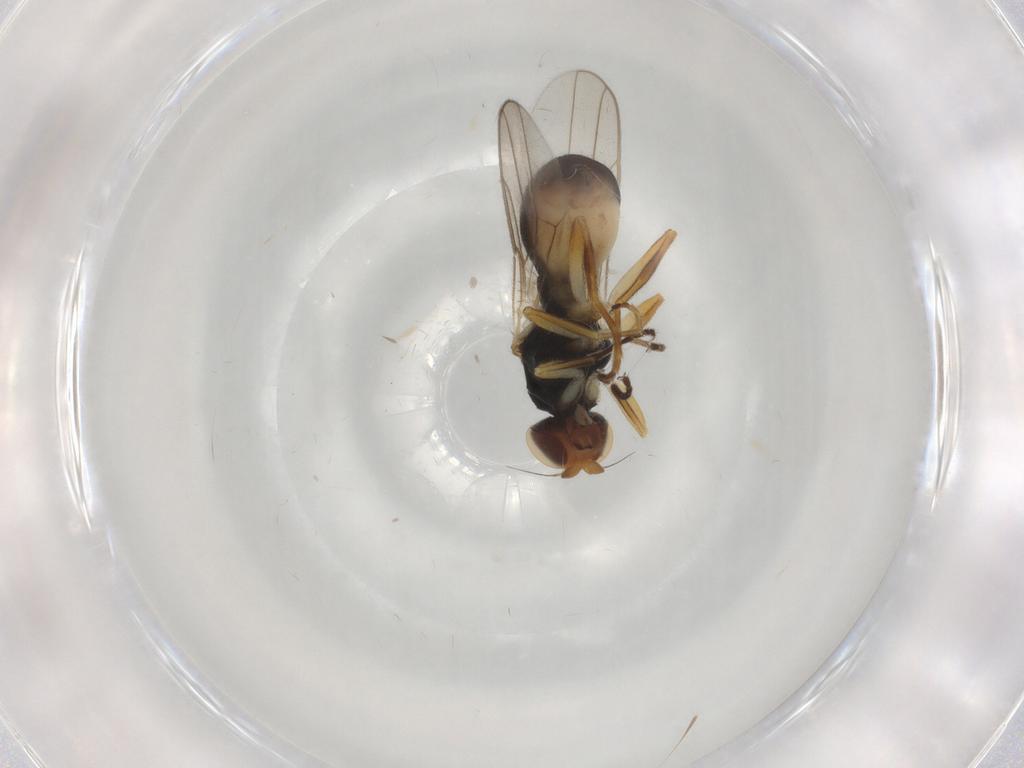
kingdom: Animalia
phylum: Arthropoda
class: Insecta
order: Diptera
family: Chloropidae
